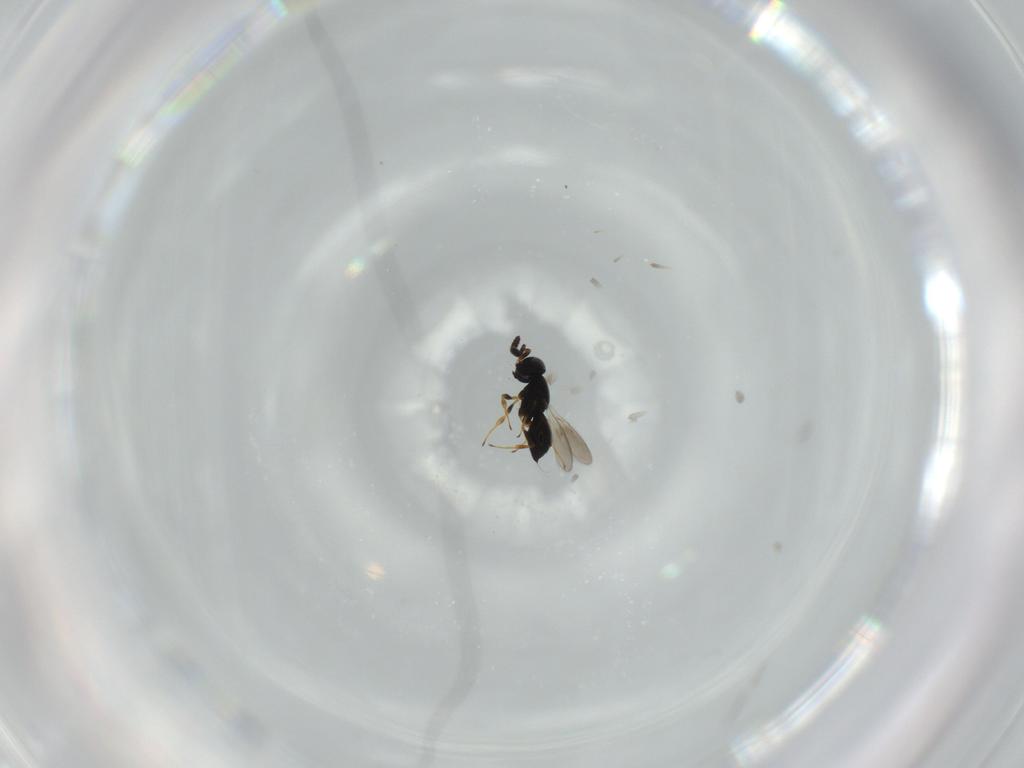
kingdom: Animalia
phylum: Arthropoda
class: Insecta
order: Hymenoptera
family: Scelionidae
